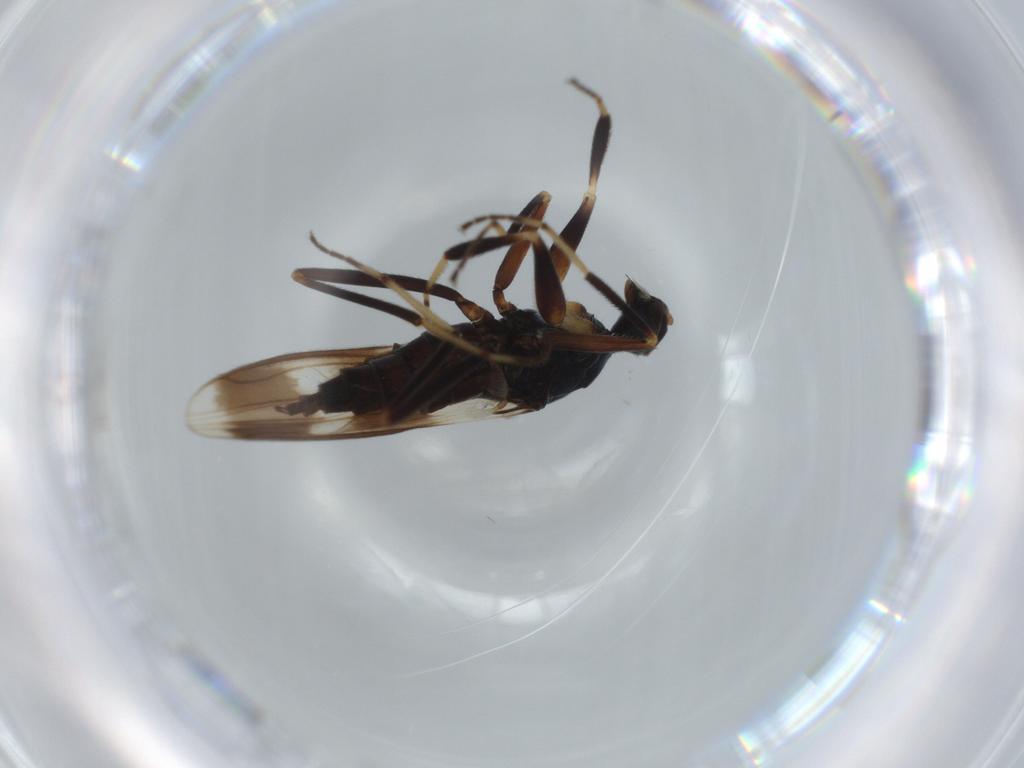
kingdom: Animalia
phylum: Arthropoda
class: Insecta
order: Diptera
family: Hybotidae
